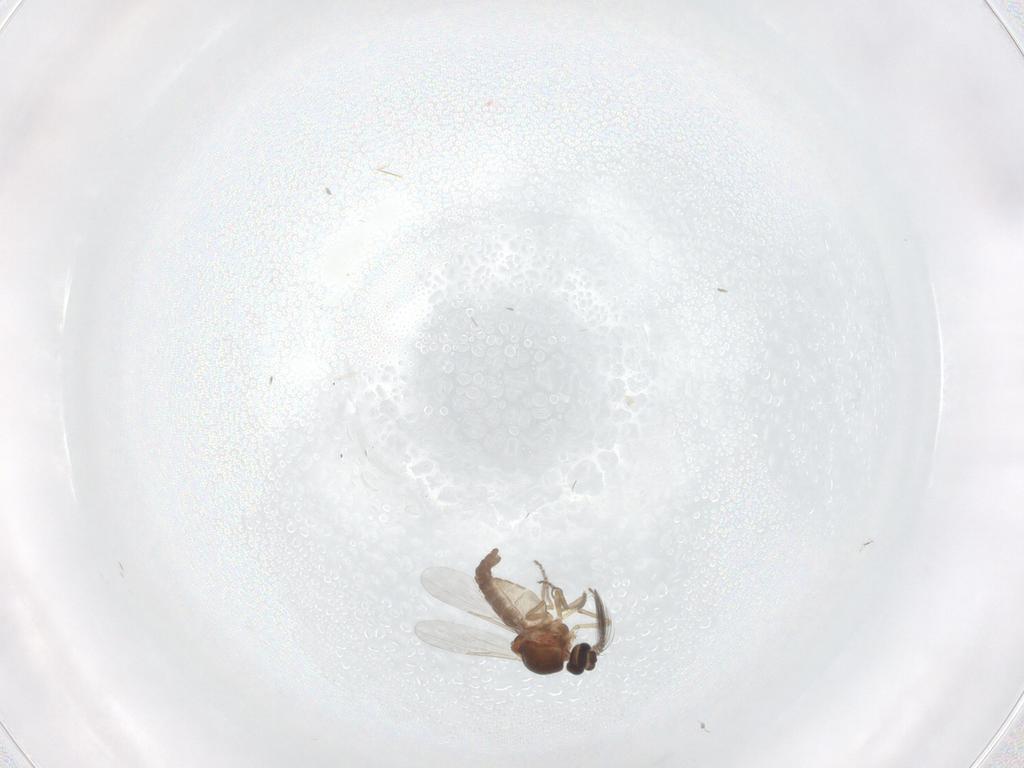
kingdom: Animalia
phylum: Arthropoda
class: Insecta
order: Diptera
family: Ceratopogonidae
